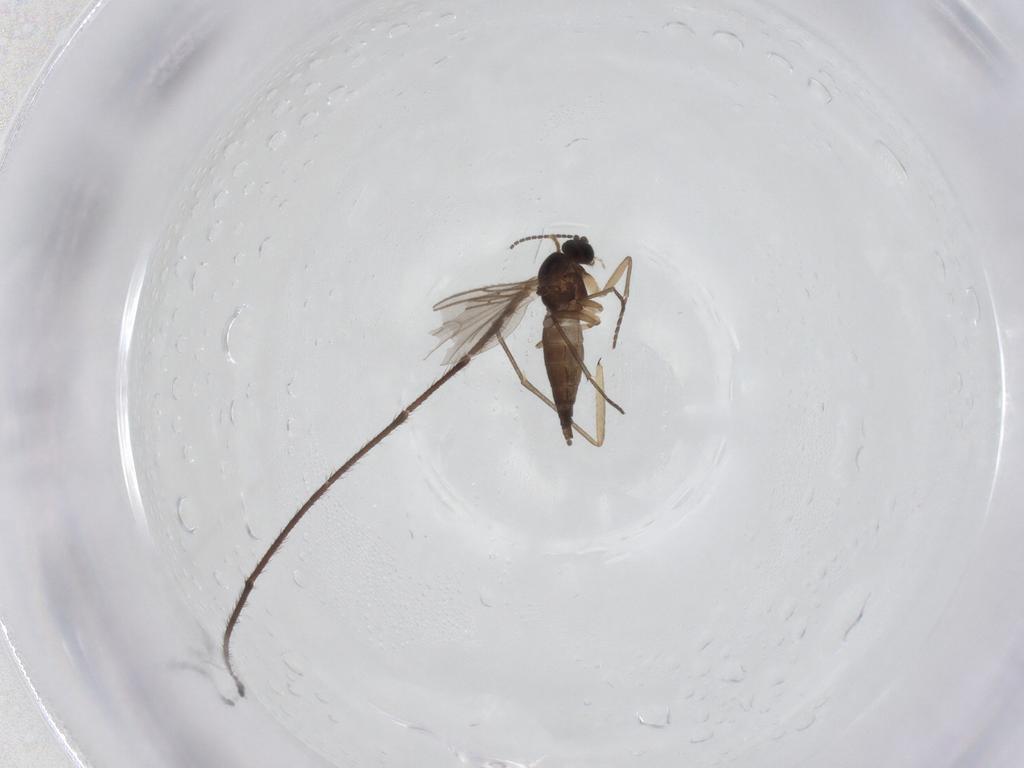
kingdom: Animalia
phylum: Arthropoda
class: Insecta
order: Diptera
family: Sciaridae
